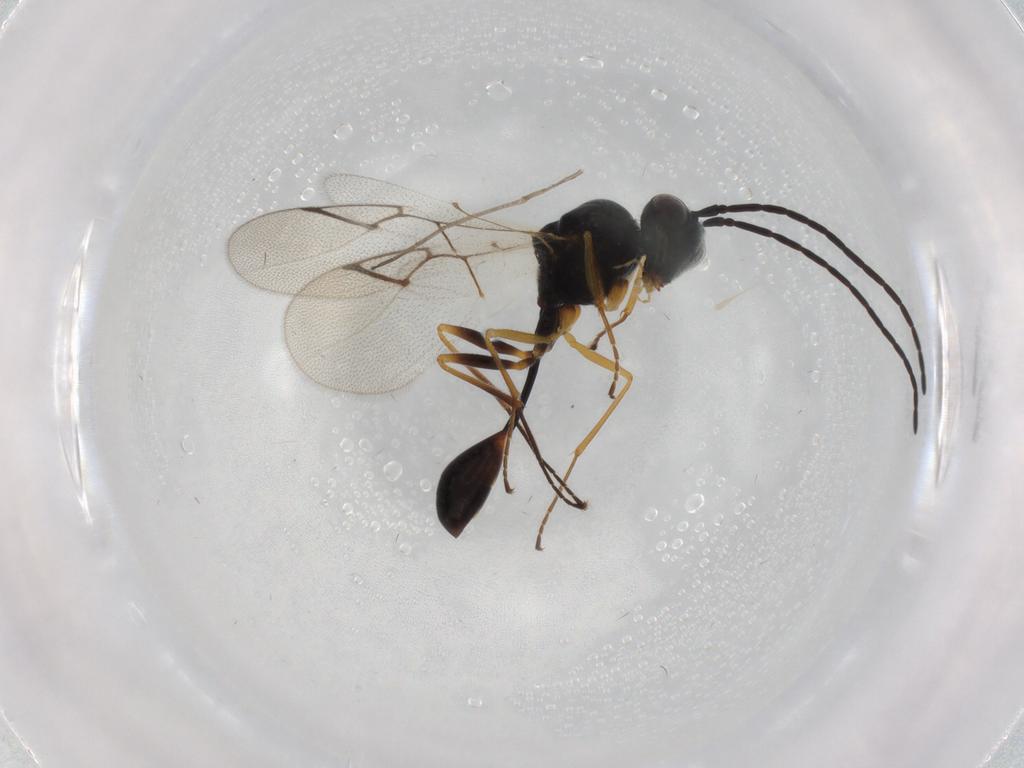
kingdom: Animalia
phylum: Arthropoda
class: Insecta
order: Hymenoptera
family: Figitidae
